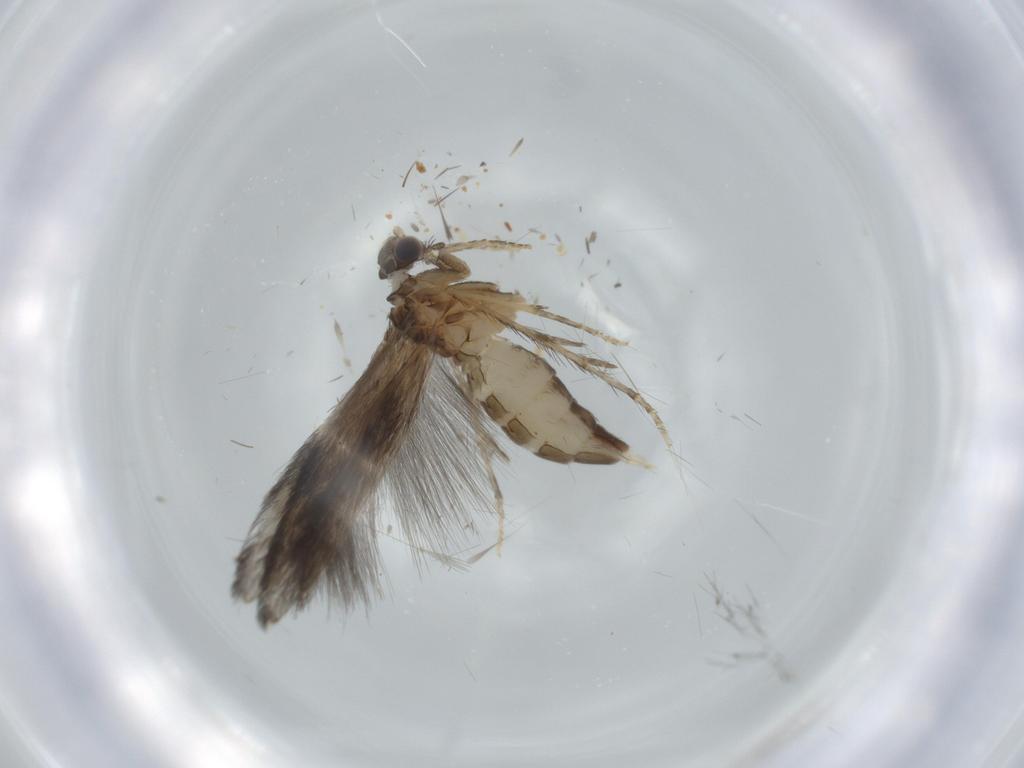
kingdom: Animalia
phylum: Arthropoda
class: Insecta
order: Trichoptera
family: Hydroptilidae
